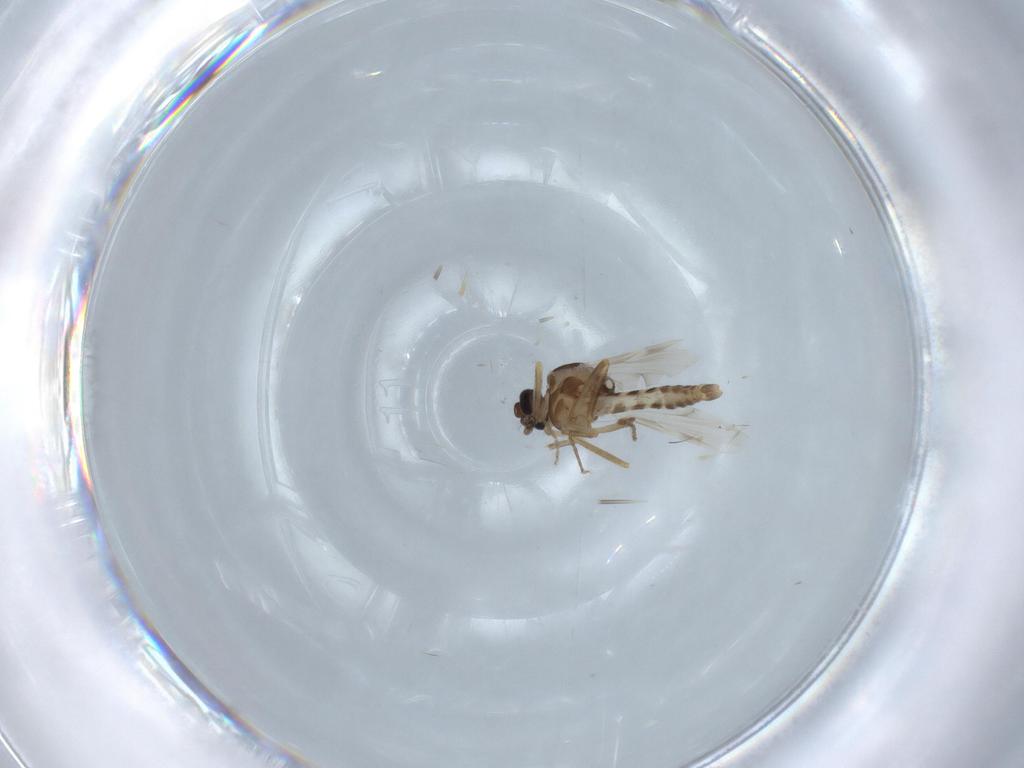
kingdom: Animalia
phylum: Arthropoda
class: Insecta
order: Diptera
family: Ceratopogonidae
